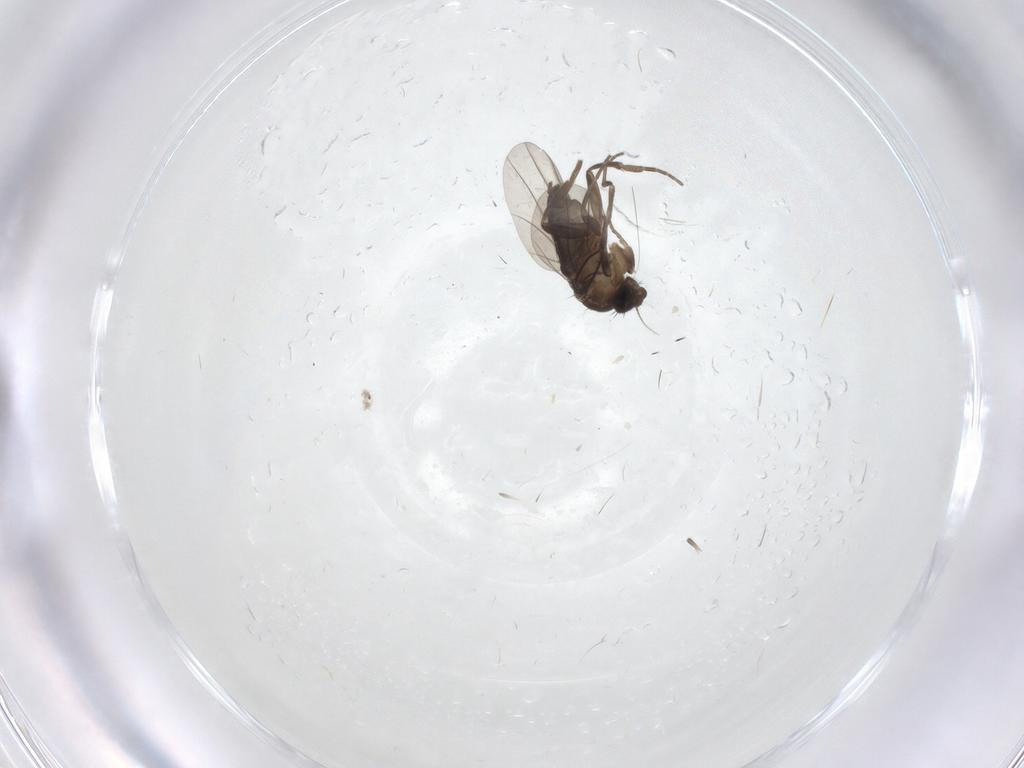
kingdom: Animalia
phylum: Arthropoda
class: Insecta
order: Diptera
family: Phoridae
